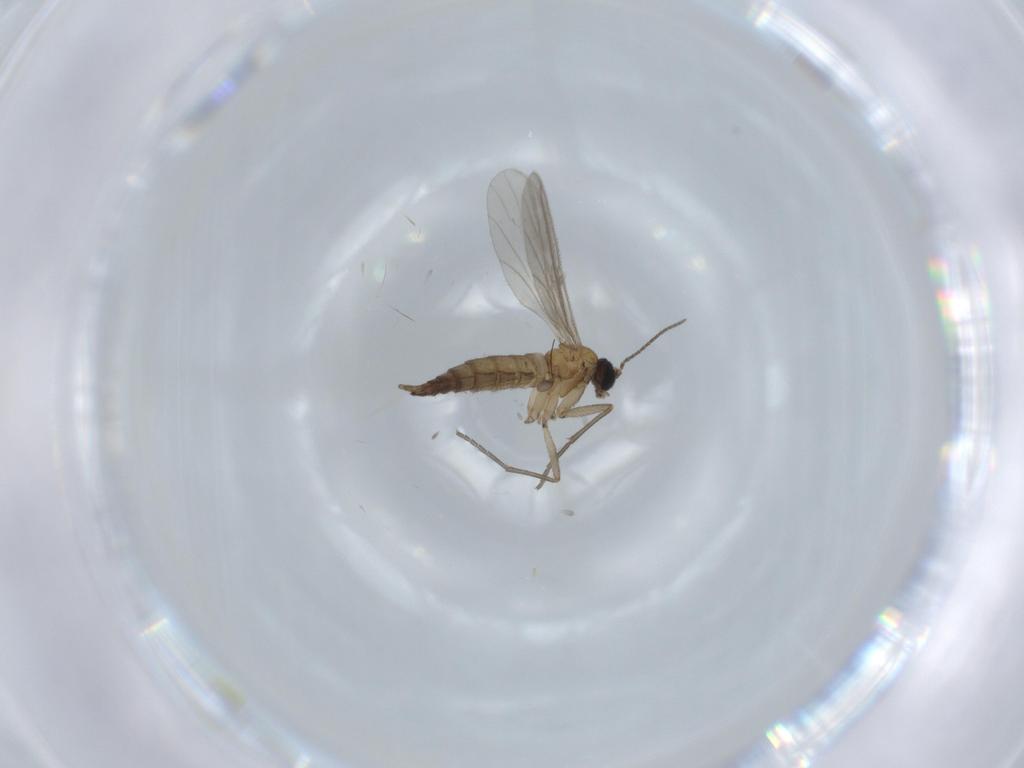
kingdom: Animalia
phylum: Arthropoda
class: Insecta
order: Diptera
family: Sciaridae
